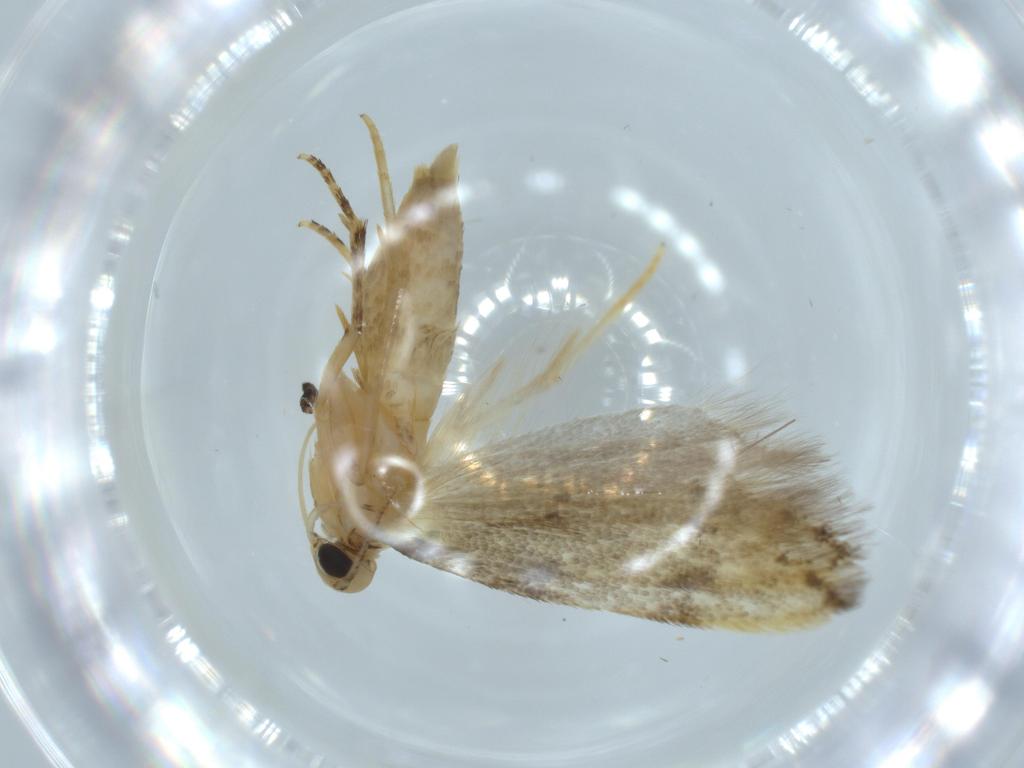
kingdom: Animalia
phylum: Arthropoda
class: Insecta
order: Lepidoptera
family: Autostichidae
